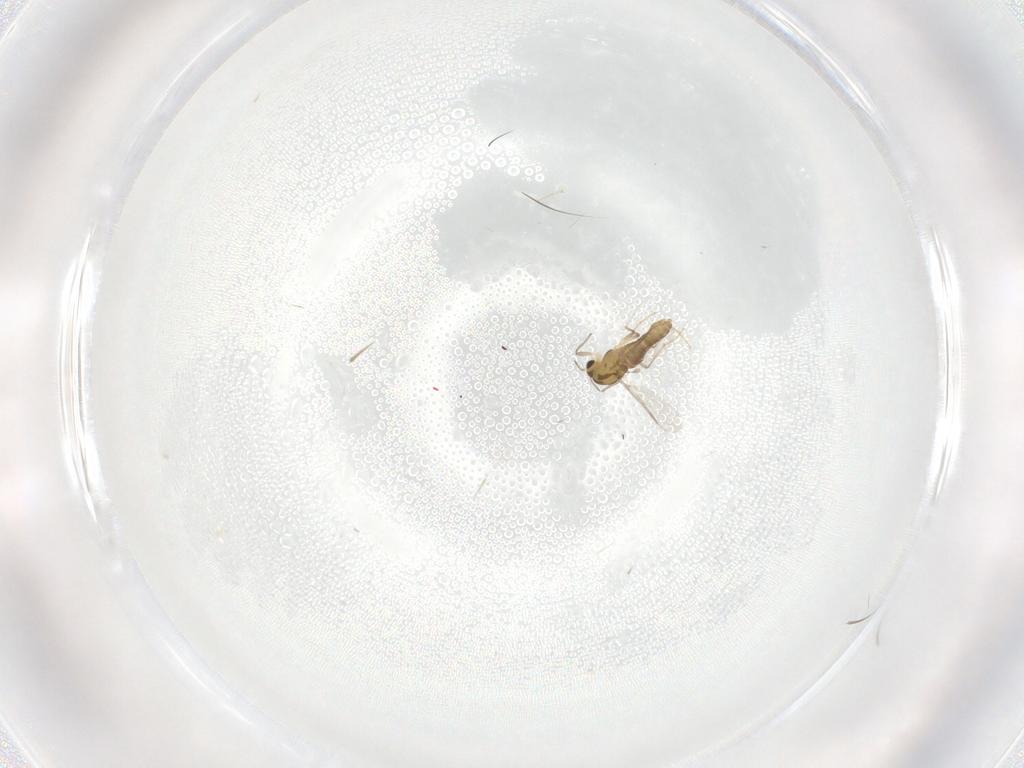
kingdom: Animalia
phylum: Arthropoda
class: Insecta
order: Diptera
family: Chironomidae
